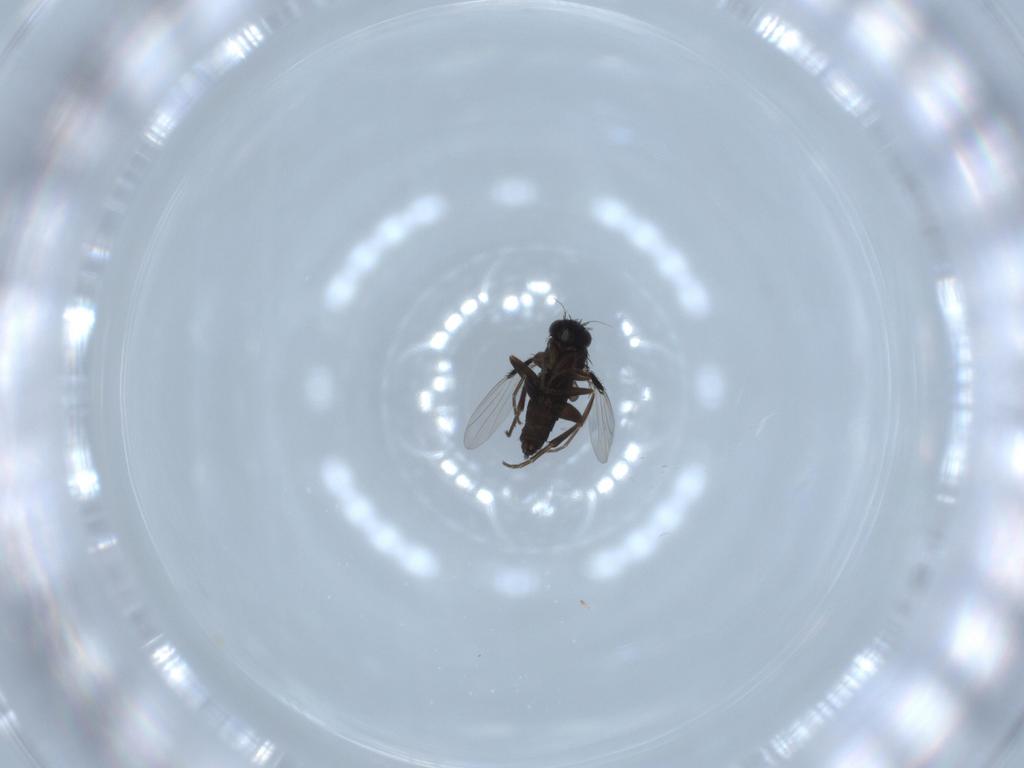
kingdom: Animalia
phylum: Arthropoda
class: Insecta
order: Diptera
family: Phoridae
